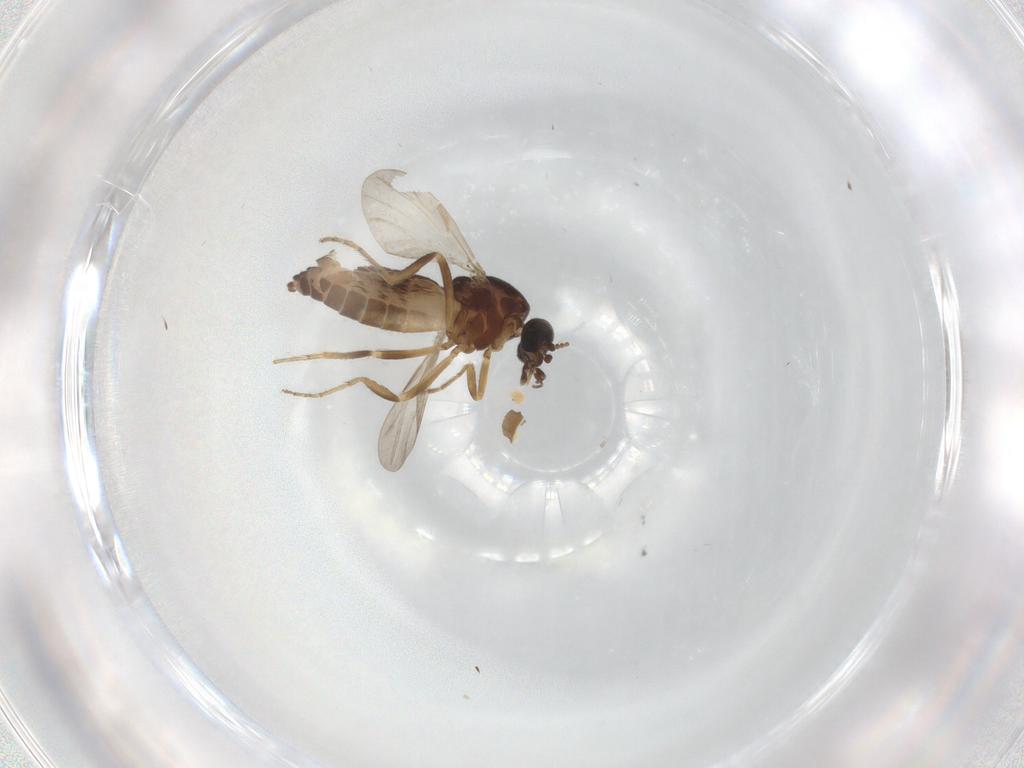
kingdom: Animalia
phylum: Arthropoda
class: Insecta
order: Diptera
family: Ceratopogonidae
